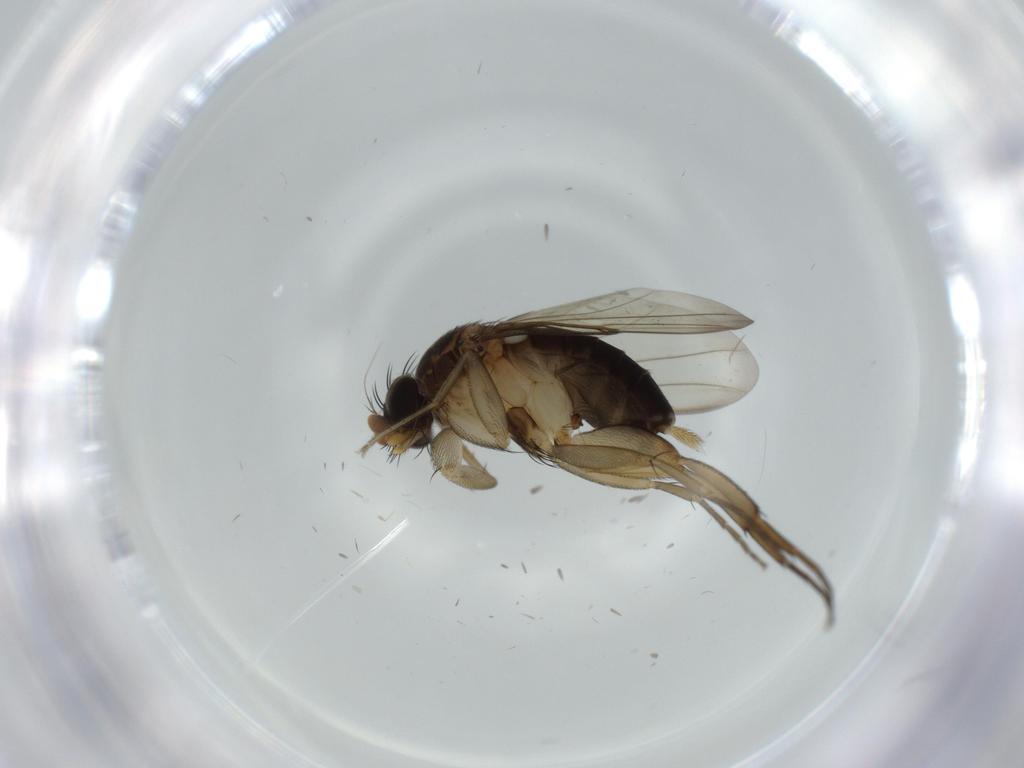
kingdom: Animalia
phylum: Arthropoda
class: Insecta
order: Diptera
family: Phoridae
